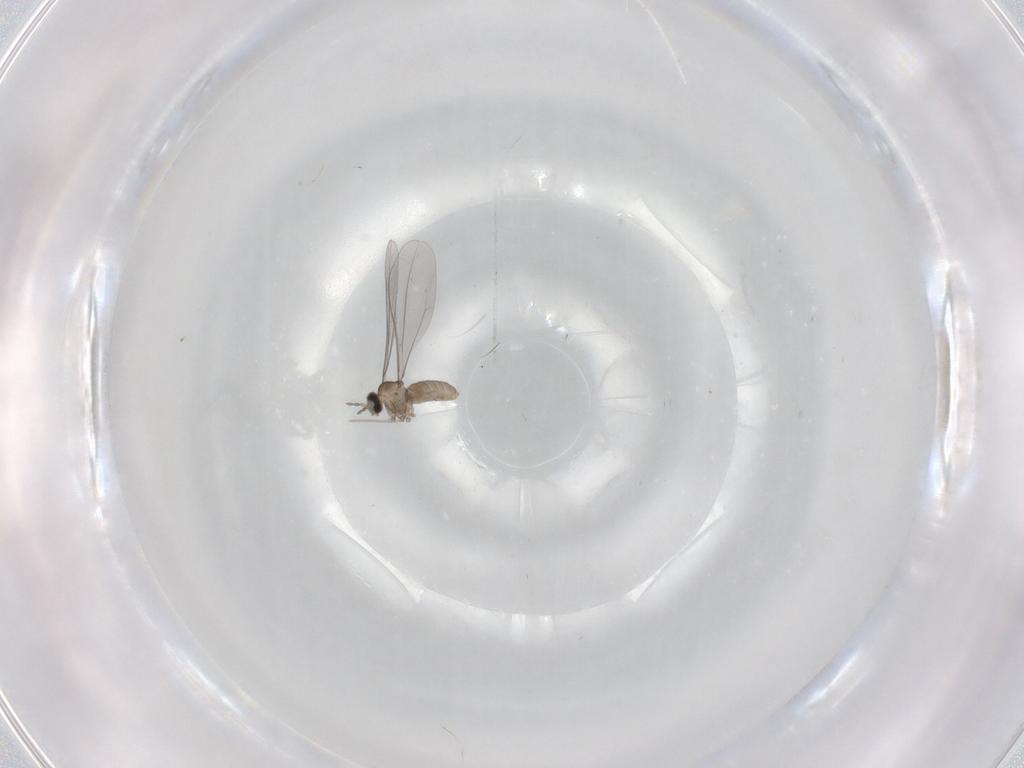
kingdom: Animalia
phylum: Arthropoda
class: Insecta
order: Diptera
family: Cecidomyiidae
